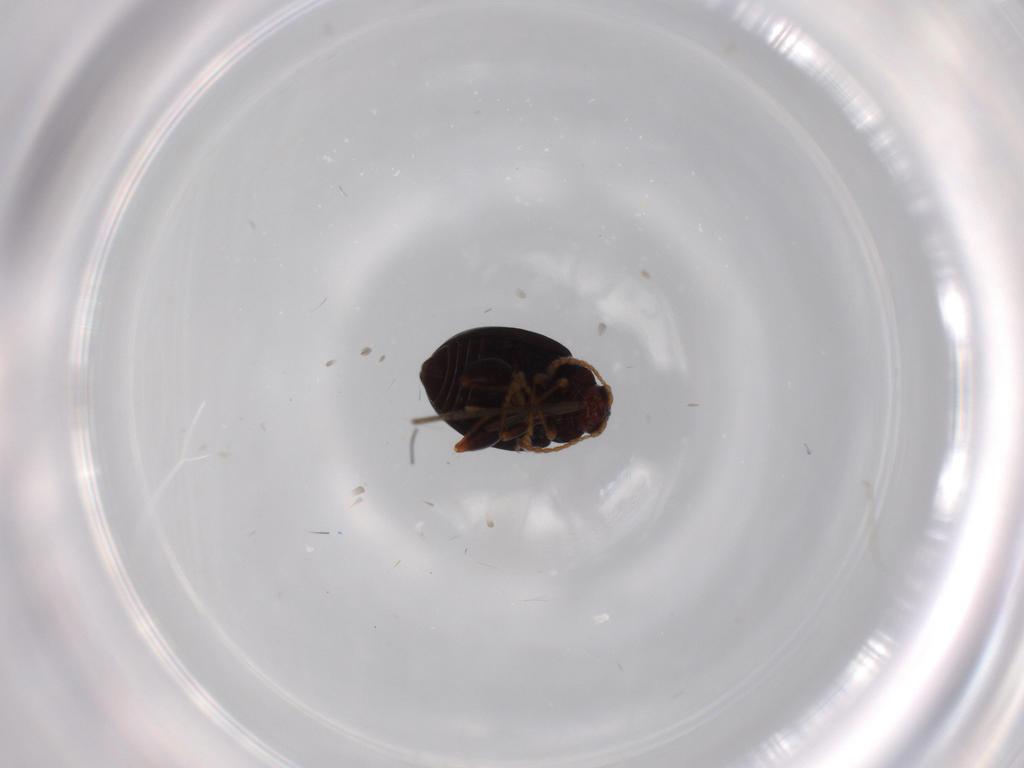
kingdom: Animalia
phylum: Arthropoda
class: Insecta
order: Coleoptera
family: Chrysomelidae
